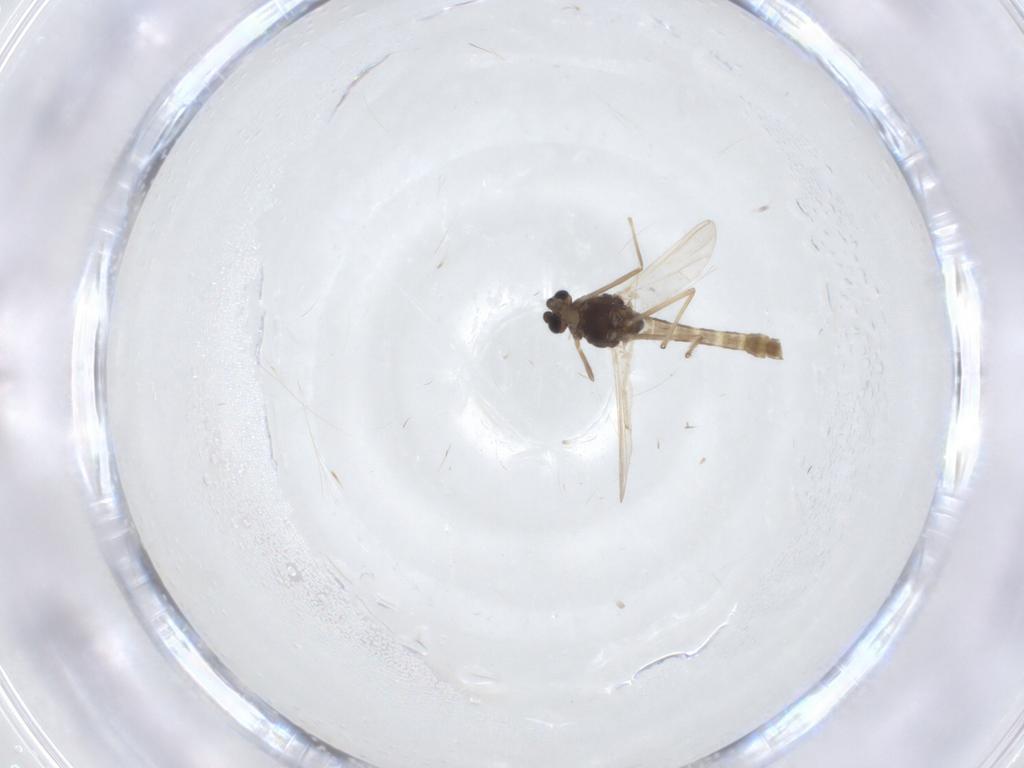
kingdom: Animalia
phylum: Arthropoda
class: Insecta
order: Diptera
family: Chironomidae
